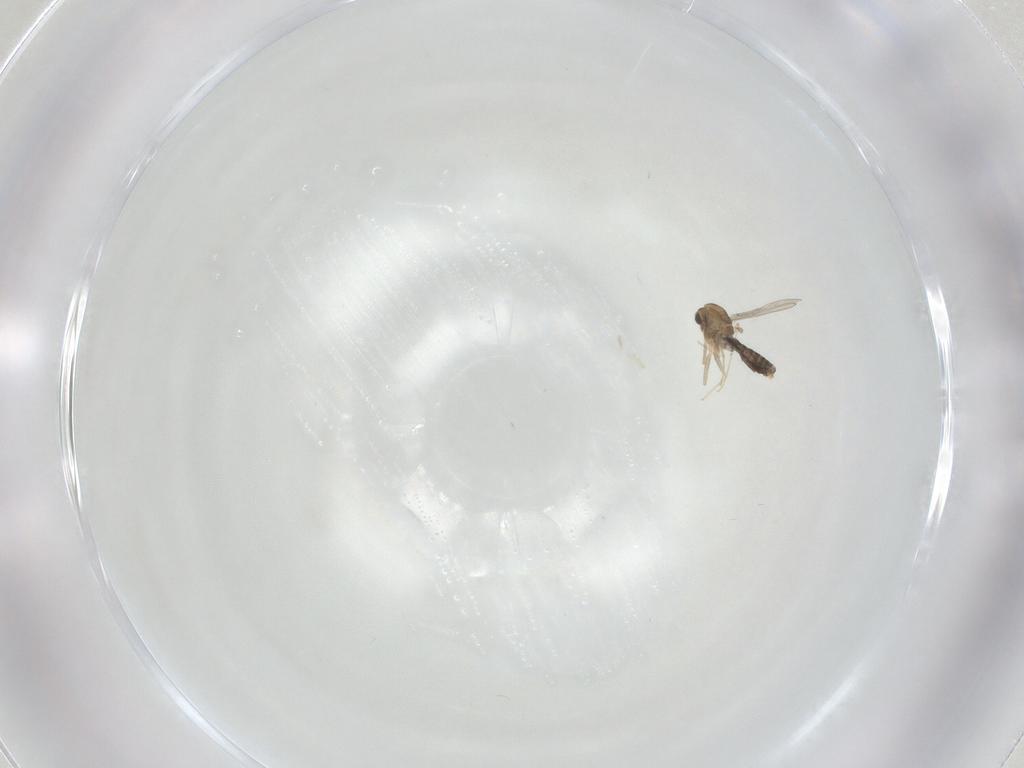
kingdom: Animalia
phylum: Arthropoda
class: Insecta
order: Diptera
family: Chironomidae
